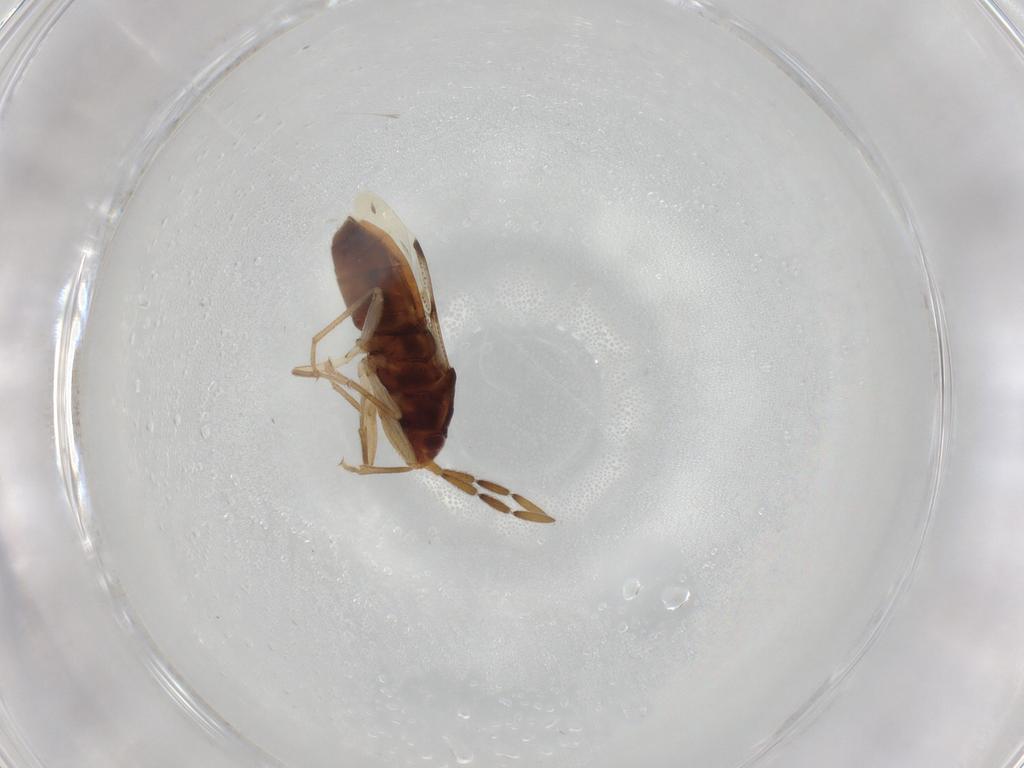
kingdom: Animalia
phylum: Arthropoda
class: Insecta
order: Hemiptera
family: Rhyparochromidae
